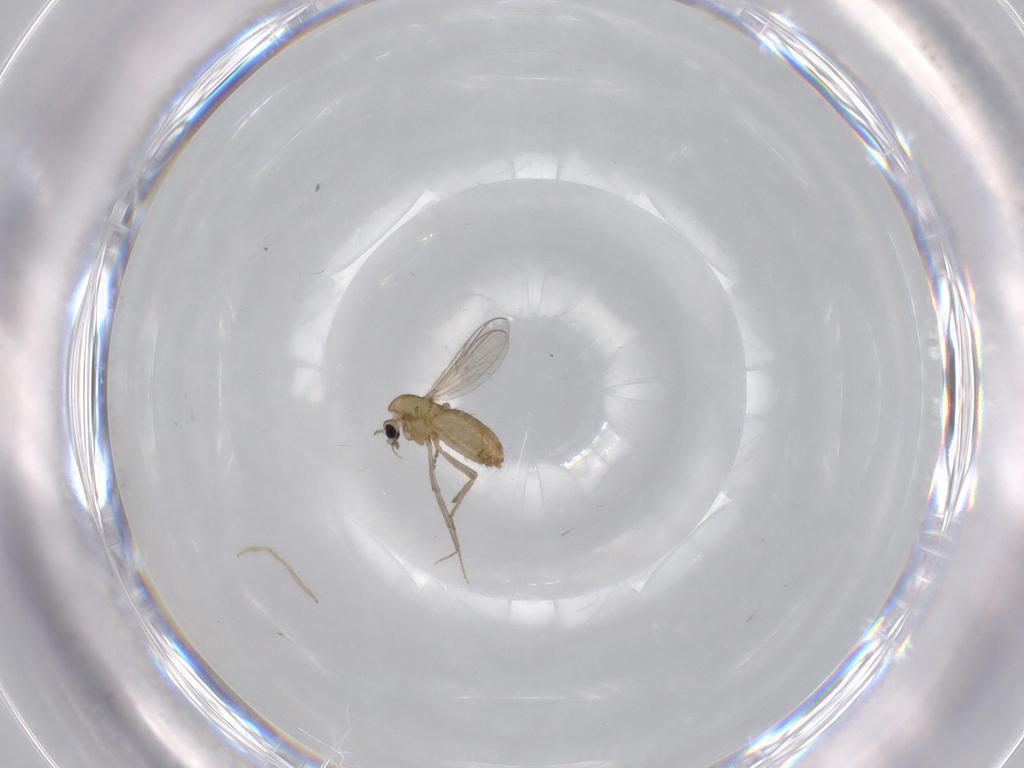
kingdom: Animalia
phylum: Arthropoda
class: Insecta
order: Diptera
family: Chironomidae
